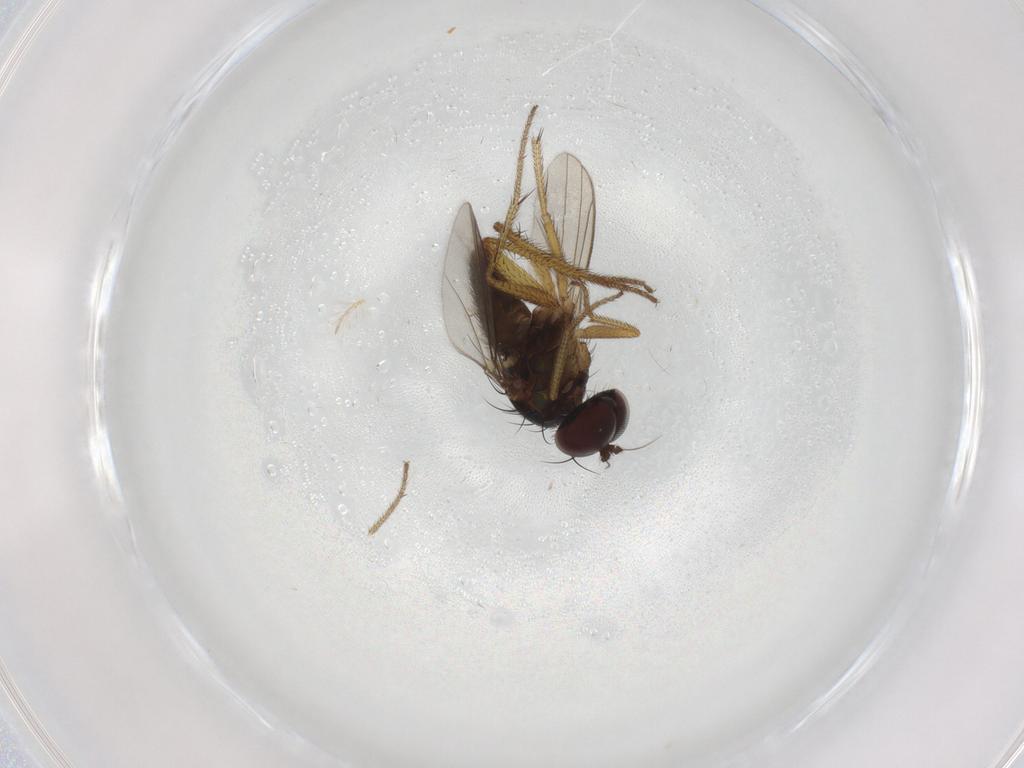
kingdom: Animalia
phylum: Arthropoda
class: Insecta
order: Diptera
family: Dolichopodidae
